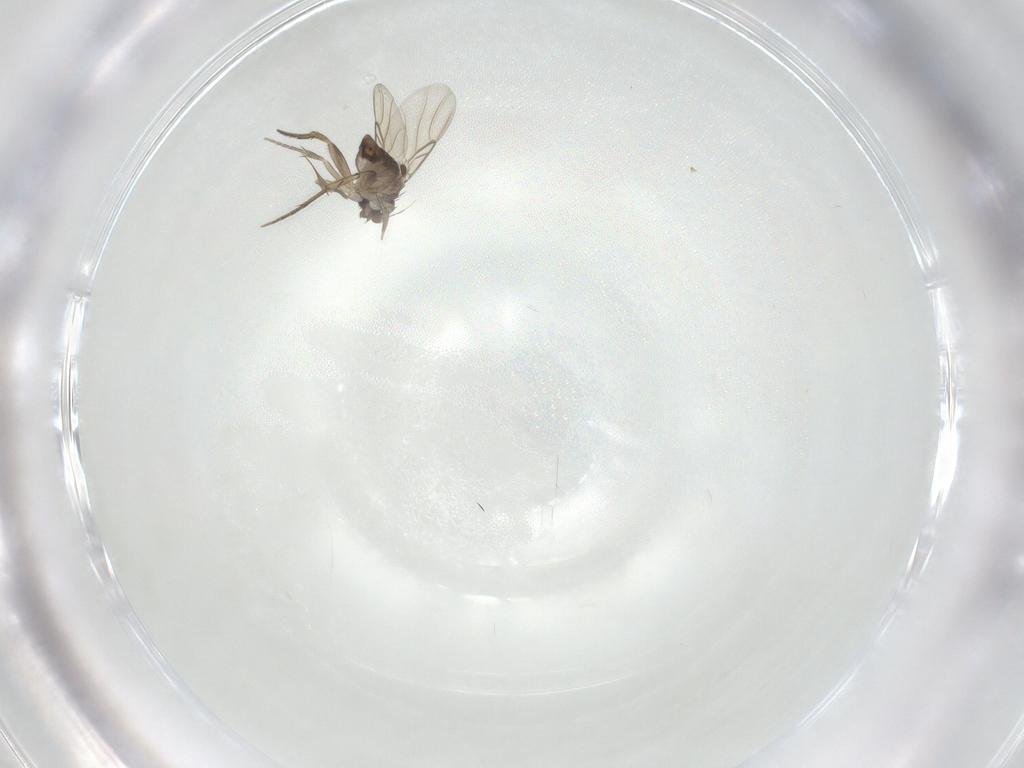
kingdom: Animalia
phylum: Arthropoda
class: Insecta
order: Diptera
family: Phoridae
